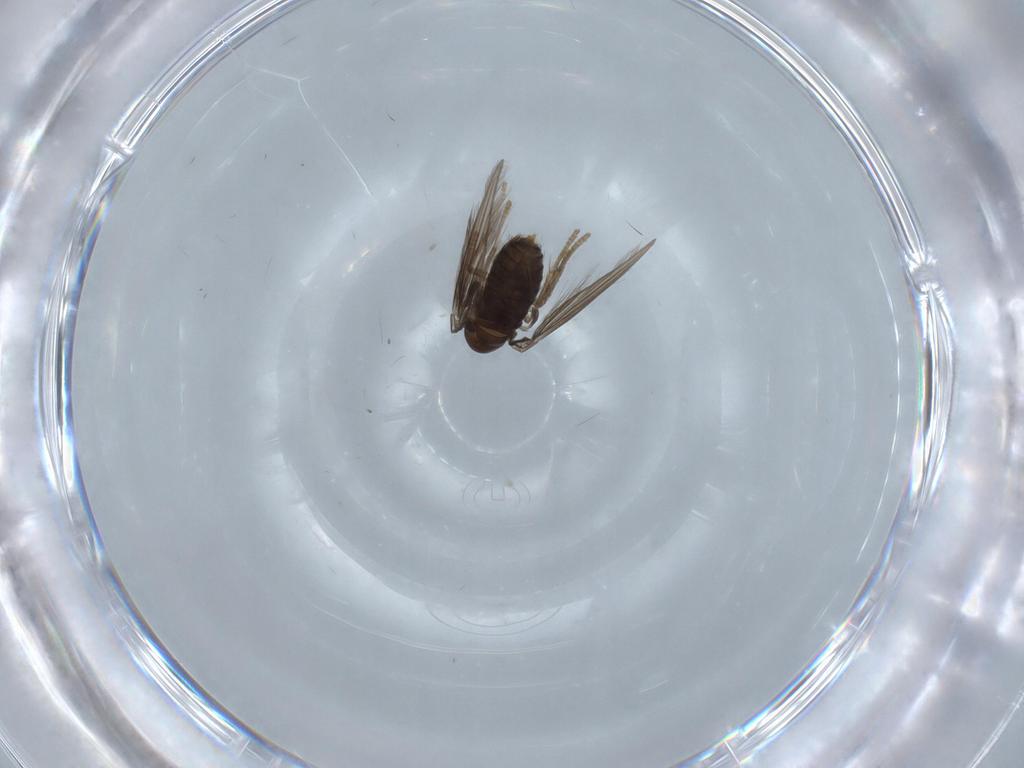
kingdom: Animalia
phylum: Arthropoda
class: Insecta
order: Diptera
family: Psychodidae
